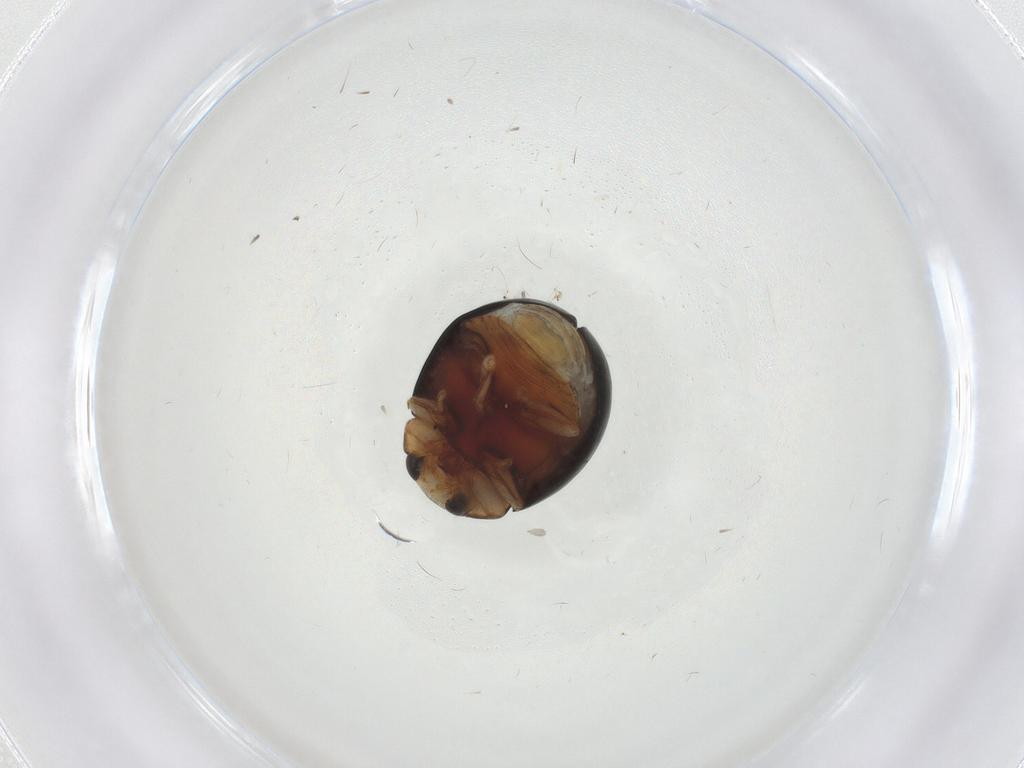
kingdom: Animalia
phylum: Arthropoda
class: Insecta
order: Coleoptera
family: Coccinellidae
